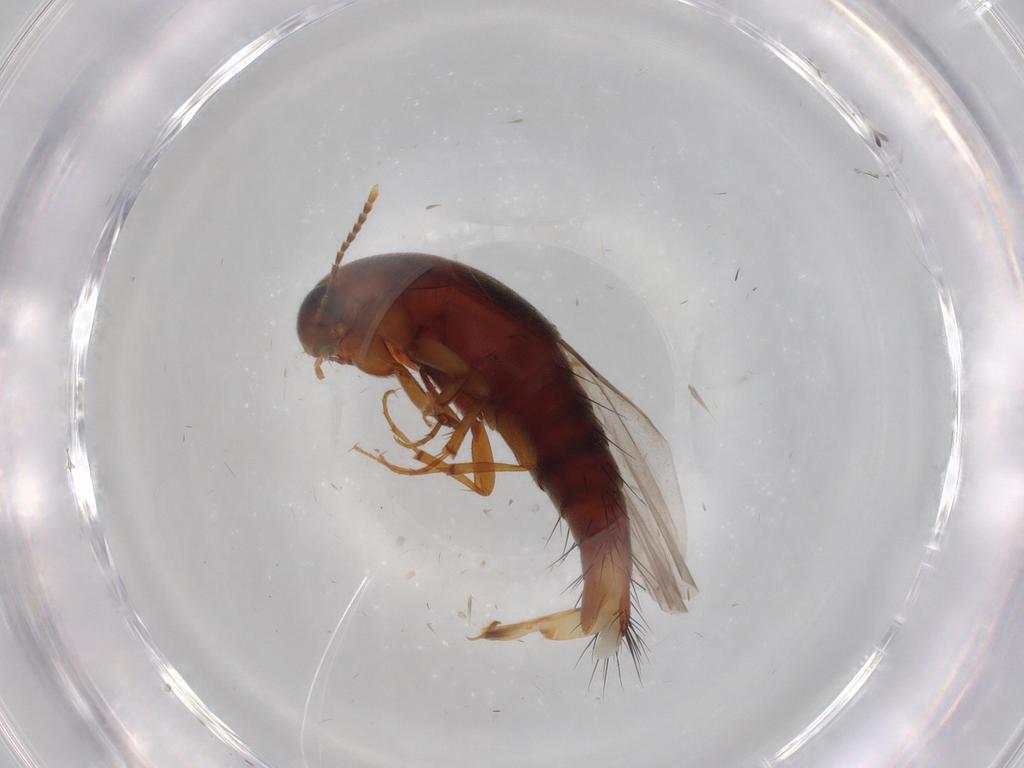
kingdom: Animalia
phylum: Arthropoda
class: Insecta
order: Coleoptera
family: Staphylinidae
